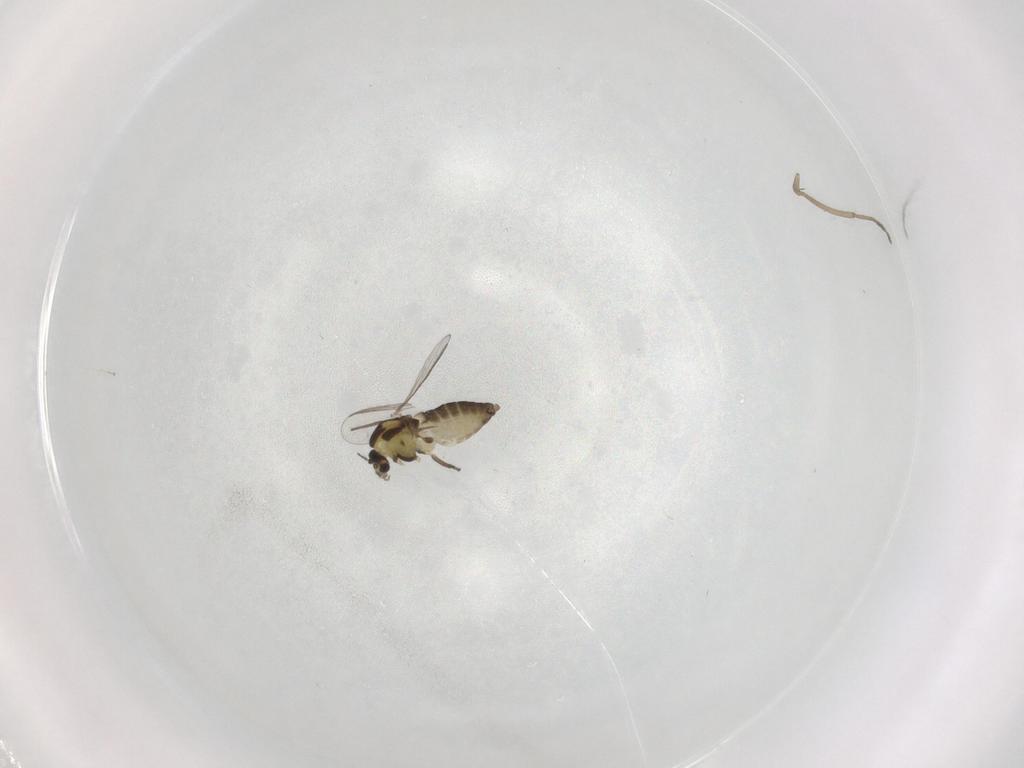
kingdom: Animalia
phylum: Arthropoda
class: Insecta
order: Diptera
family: Chironomidae
